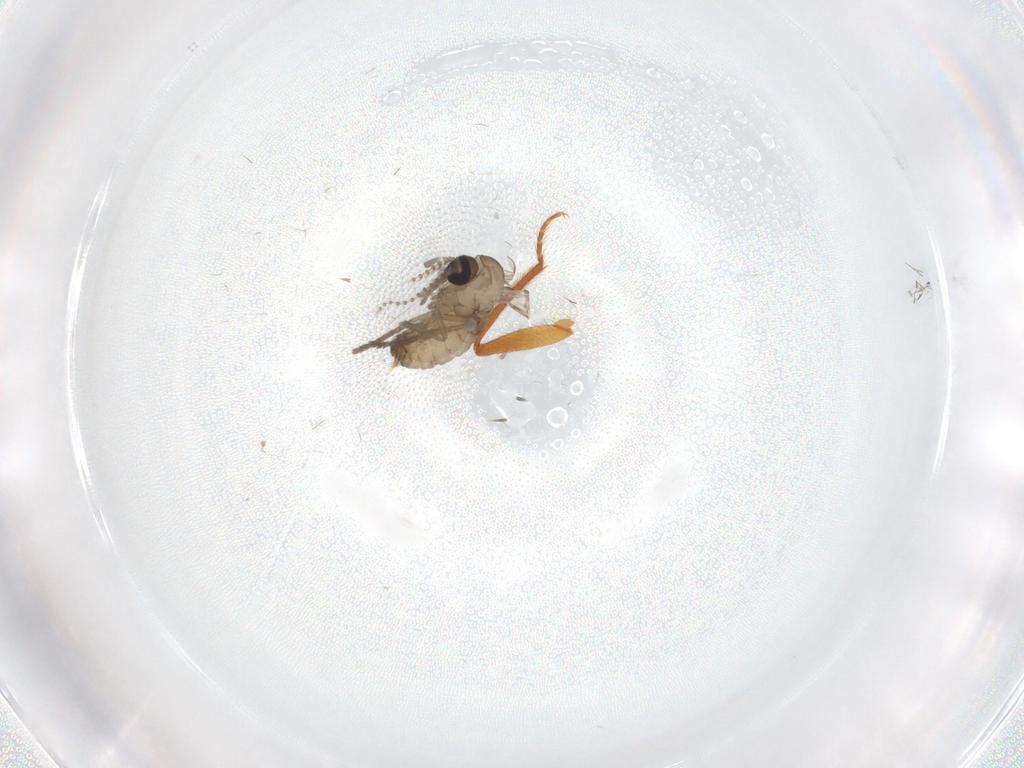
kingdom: Animalia
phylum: Arthropoda
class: Insecta
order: Diptera
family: Psychodidae
